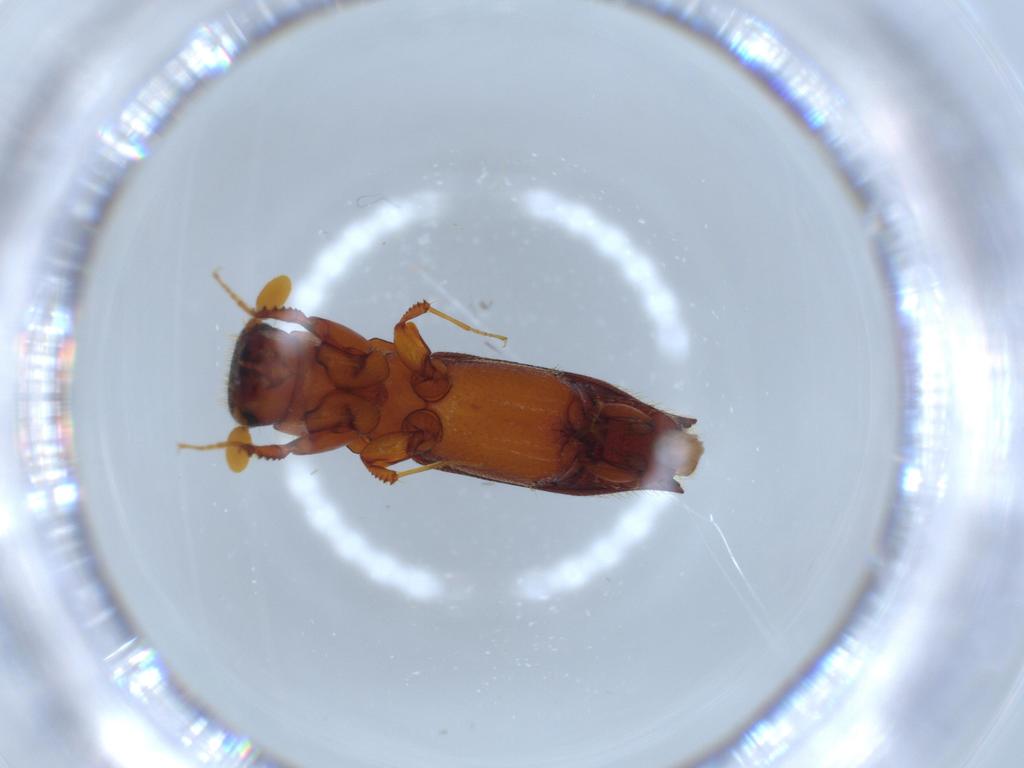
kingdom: Animalia
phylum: Arthropoda
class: Insecta
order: Coleoptera
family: Curculionidae
